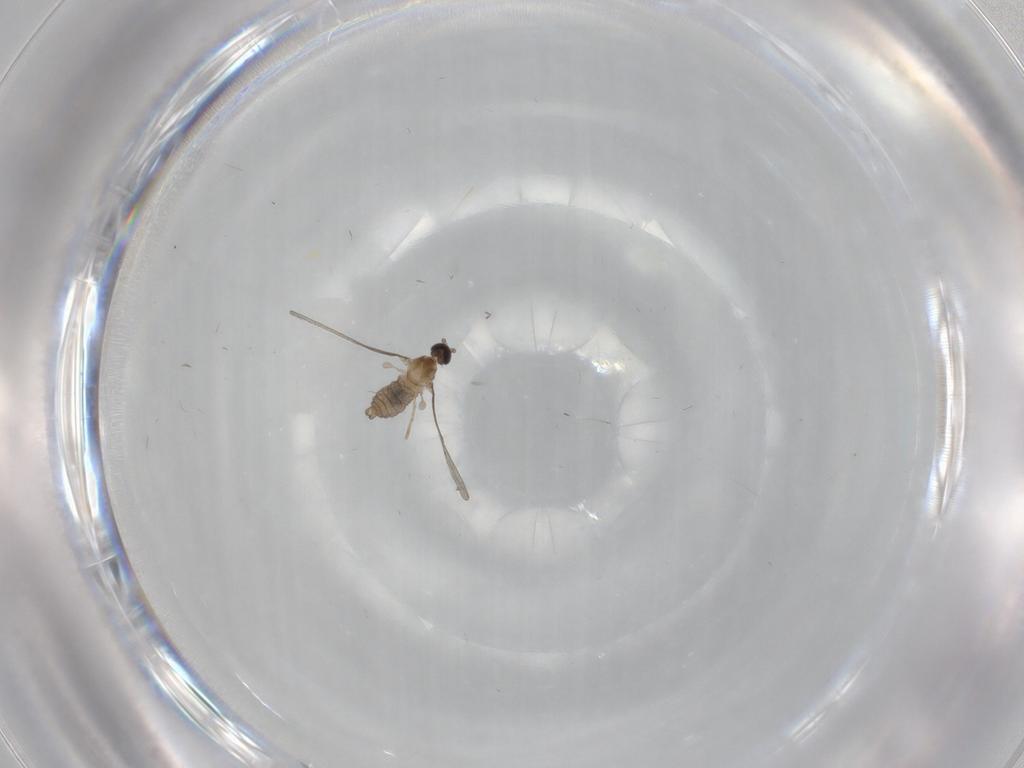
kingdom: Animalia
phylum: Arthropoda
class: Insecta
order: Diptera
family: Cecidomyiidae
